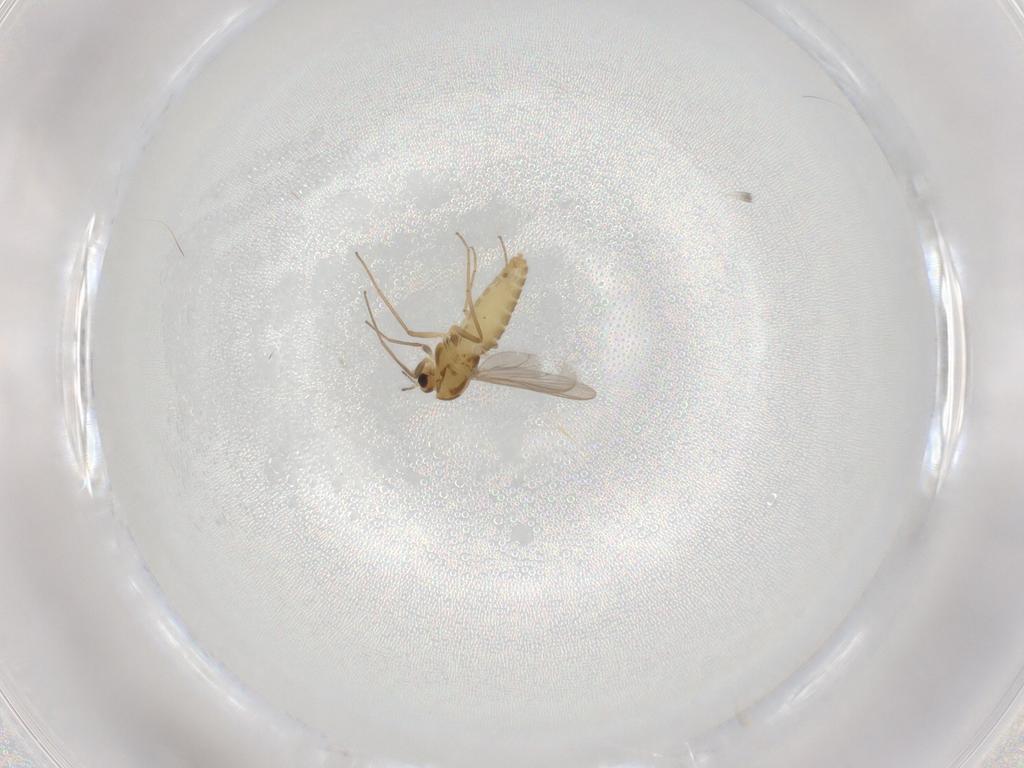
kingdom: Animalia
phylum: Arthropoda
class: Insecta
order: Diptera
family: Chironomidae
